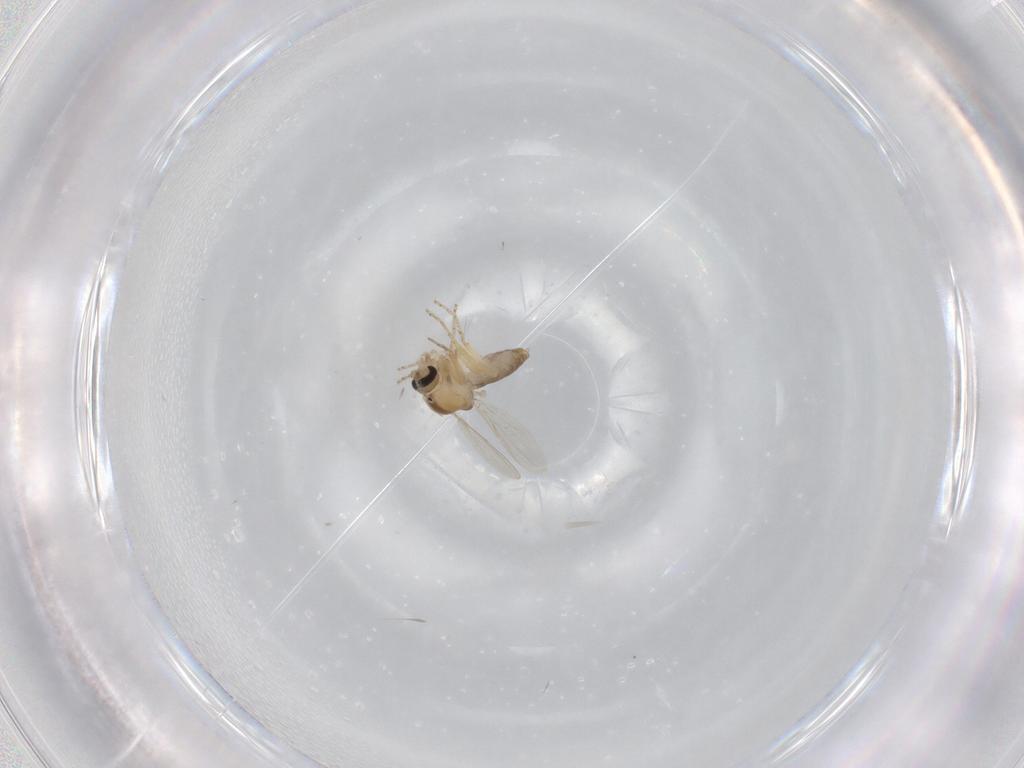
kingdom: Animalia
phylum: Arthropoda
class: Insecta
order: Diptera
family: Ceratopogonidae
